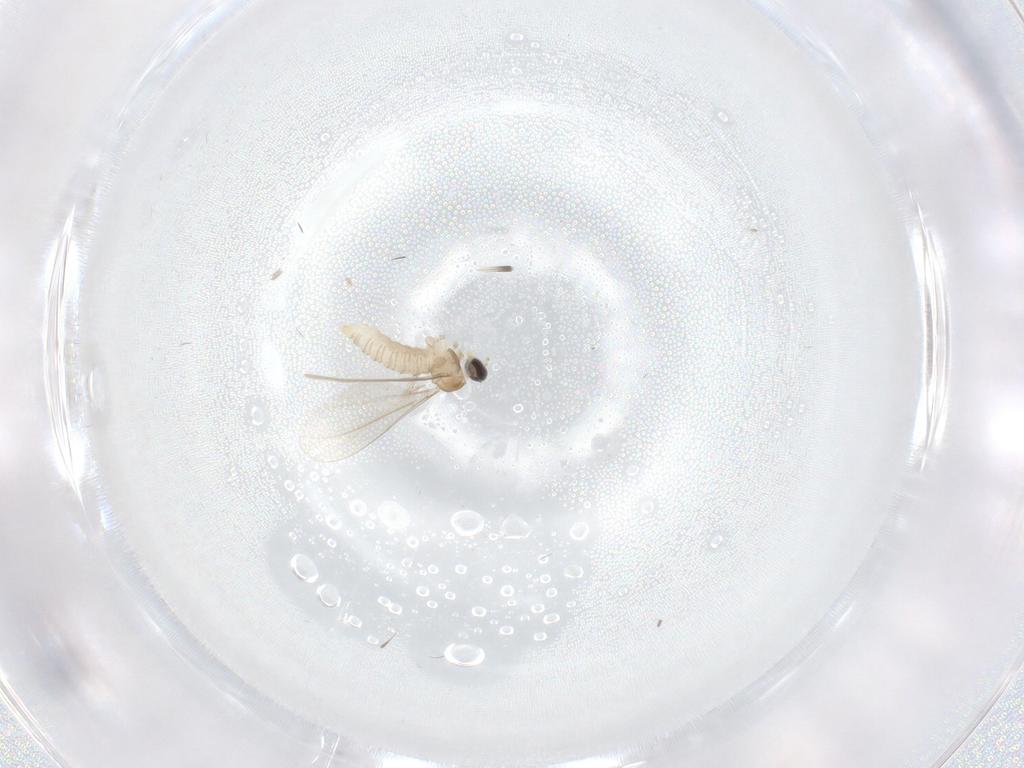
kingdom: Animalia
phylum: Arthropoda
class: Insecta
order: Diptera
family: Cecidomyiidae
